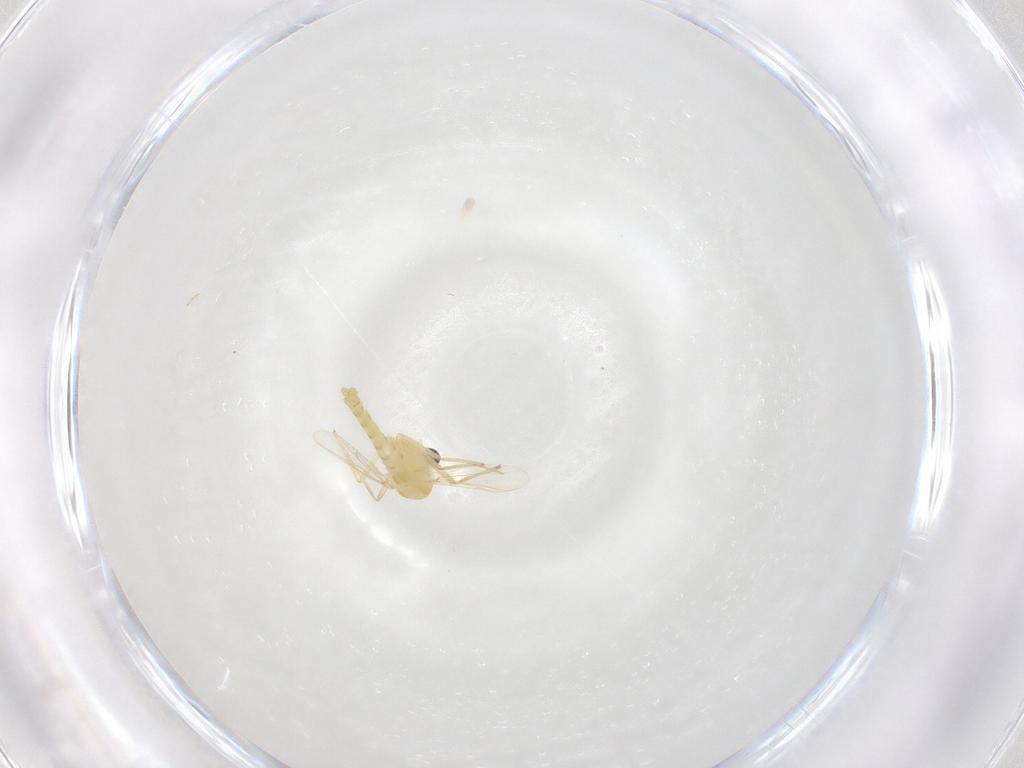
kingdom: Animalia
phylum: Arthropoda
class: Insecta
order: Diptera
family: Chironomidae
